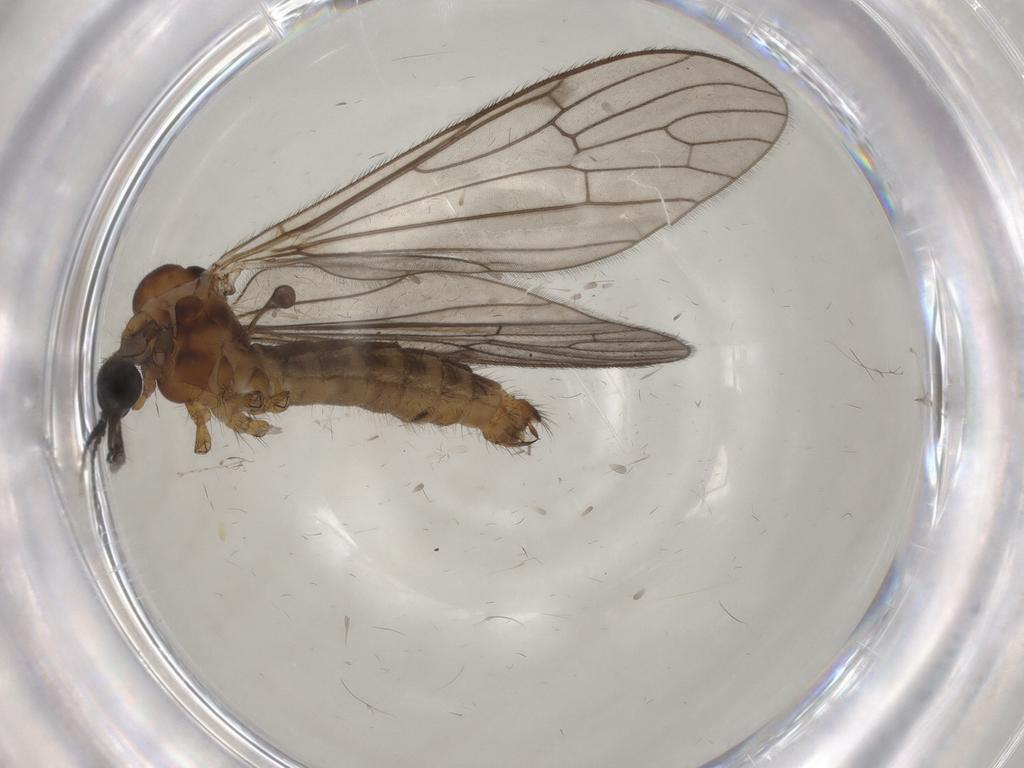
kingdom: Animalia
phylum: Arthropoda
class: Insecta
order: Diptera
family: Limoniidae
